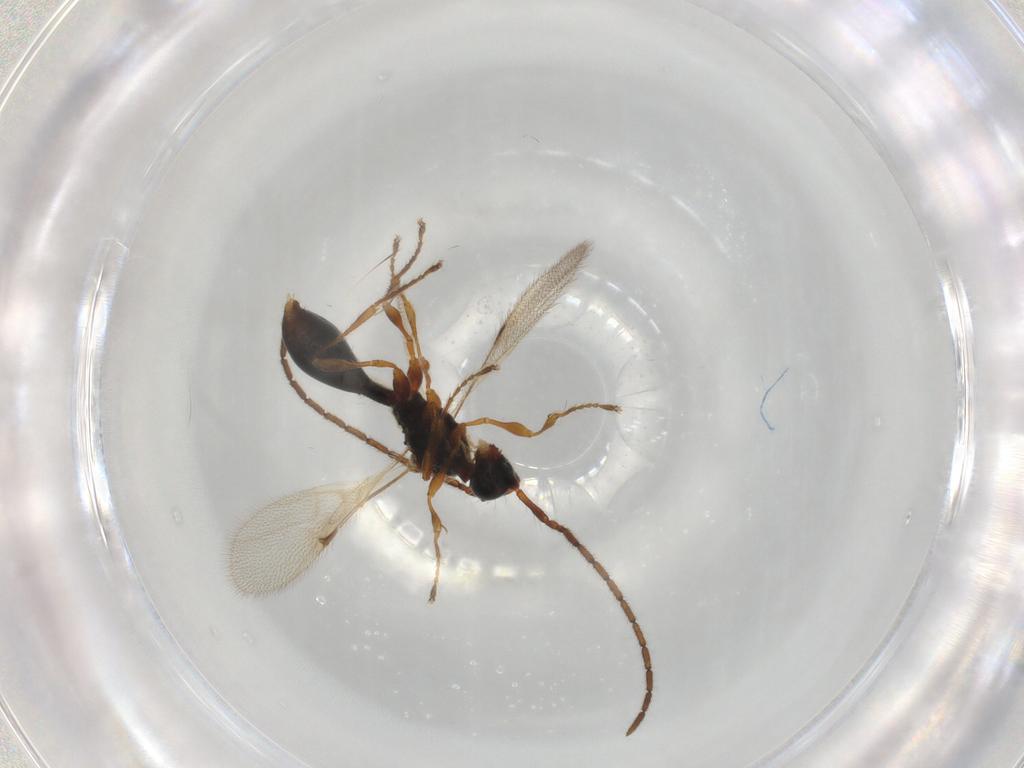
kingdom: Animalia
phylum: Arthropoda
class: Insecta
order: Hymenoptera
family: Diapriidae
